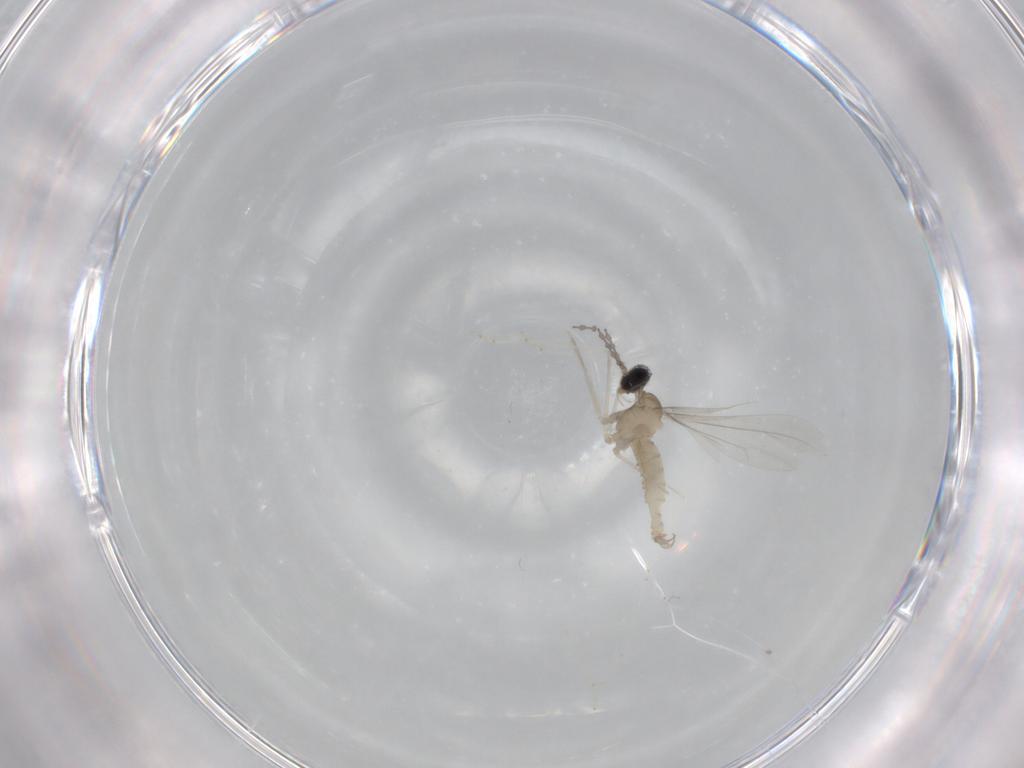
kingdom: Animalia
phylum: Arthropoda
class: Insecta
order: Diptera
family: Cecidomyiidae
